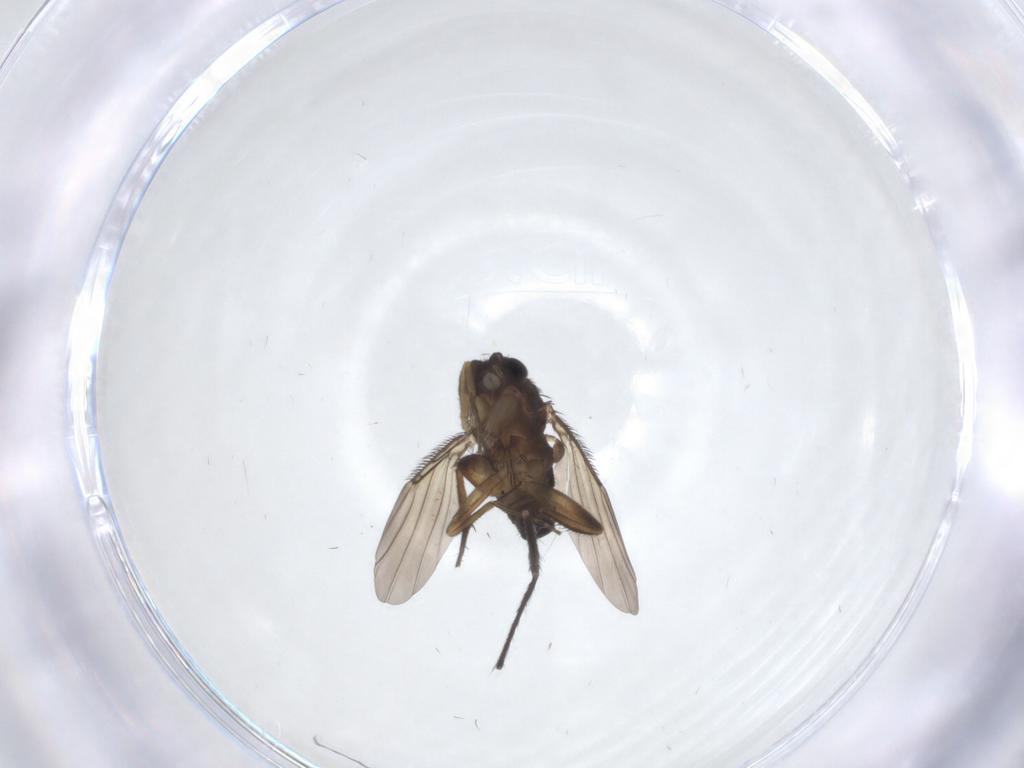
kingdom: Animalia
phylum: Arthropoda
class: Insecta
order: Diptera
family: Phoridae
